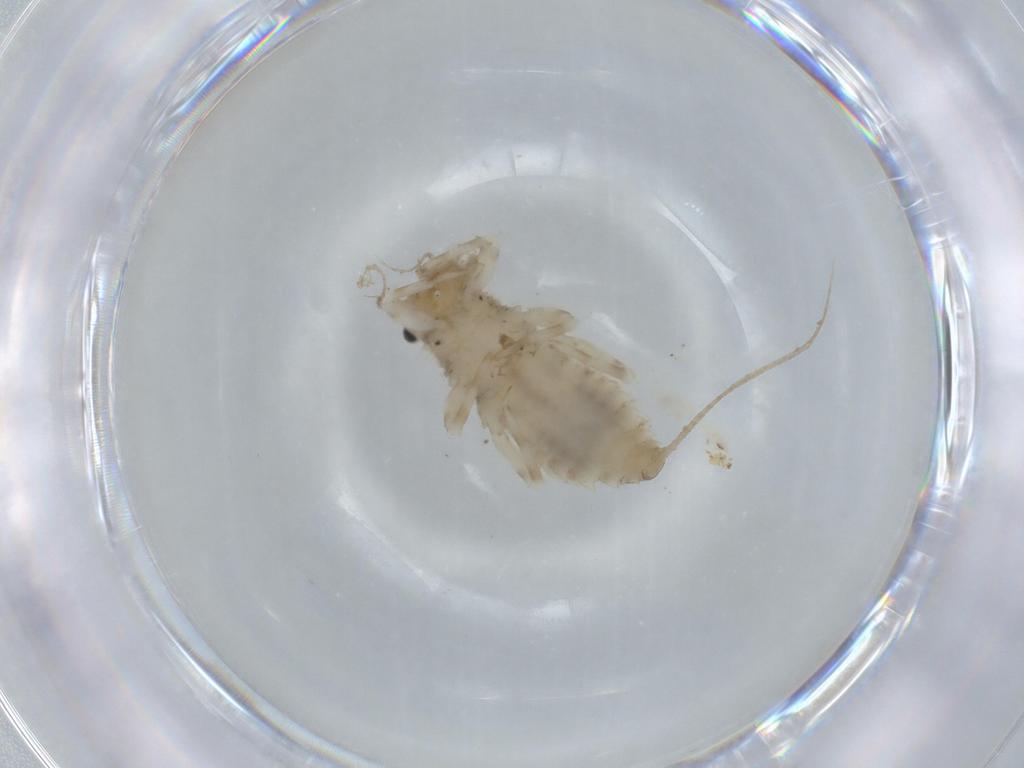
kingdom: Animalia
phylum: Arthropoda
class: Insecta
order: Ephemeroptera
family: Caenidae
